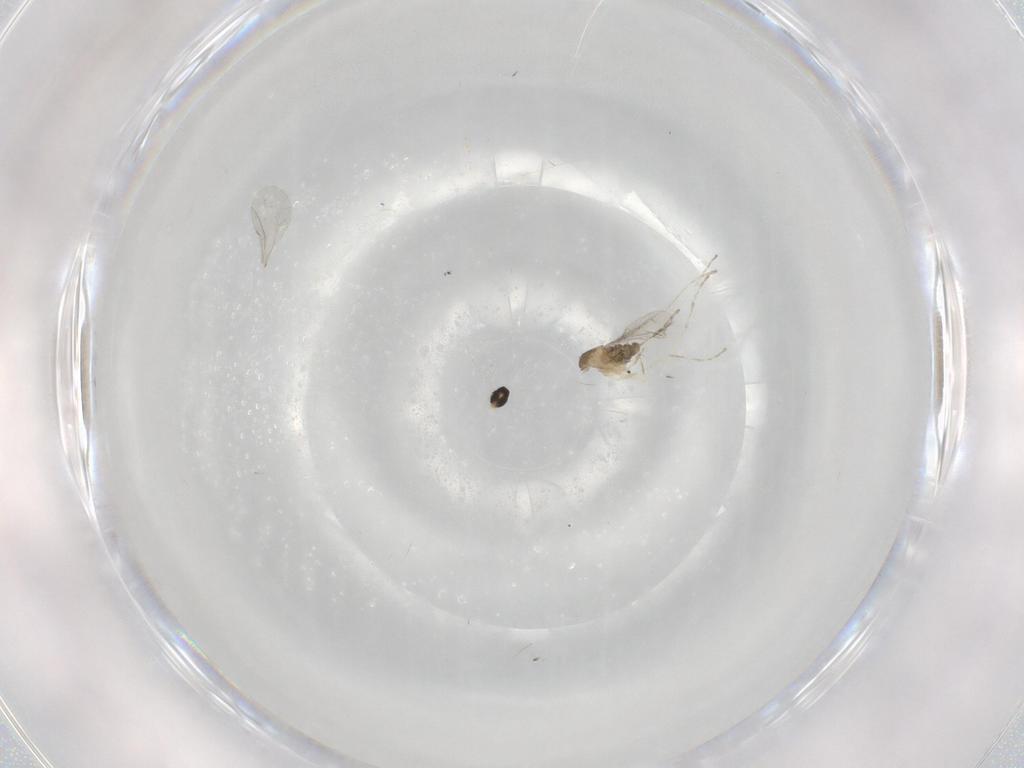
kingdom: Animalia
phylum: Arthropoda
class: Insecta
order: Diptera
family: Cecidomyiidae
